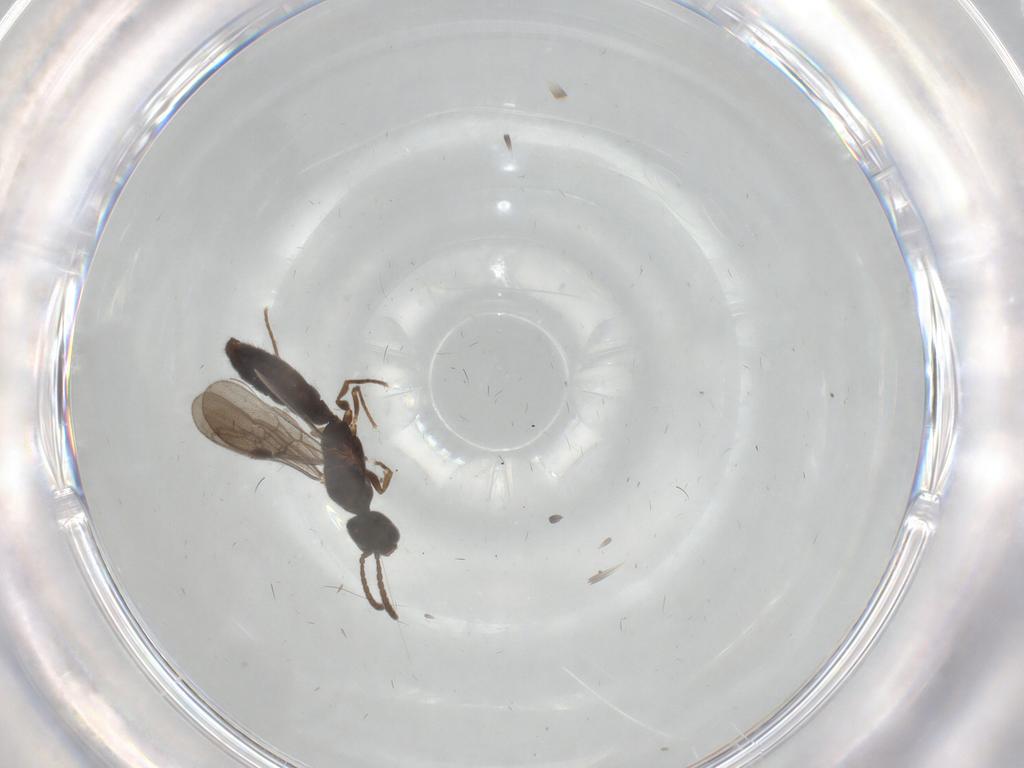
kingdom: Animalia
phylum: Arthropoda
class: Insecta
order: Hymenoptera
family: Formicidae
